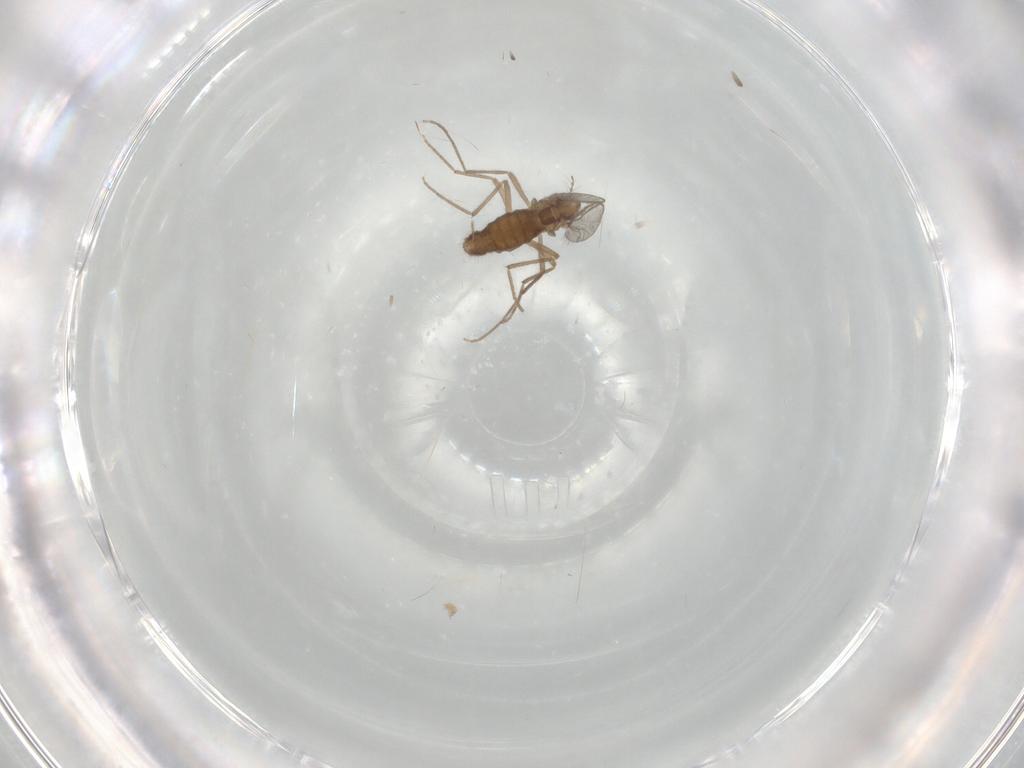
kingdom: Animalia
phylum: Arthropoda
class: Insecta
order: Diptera
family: Chironomidae
